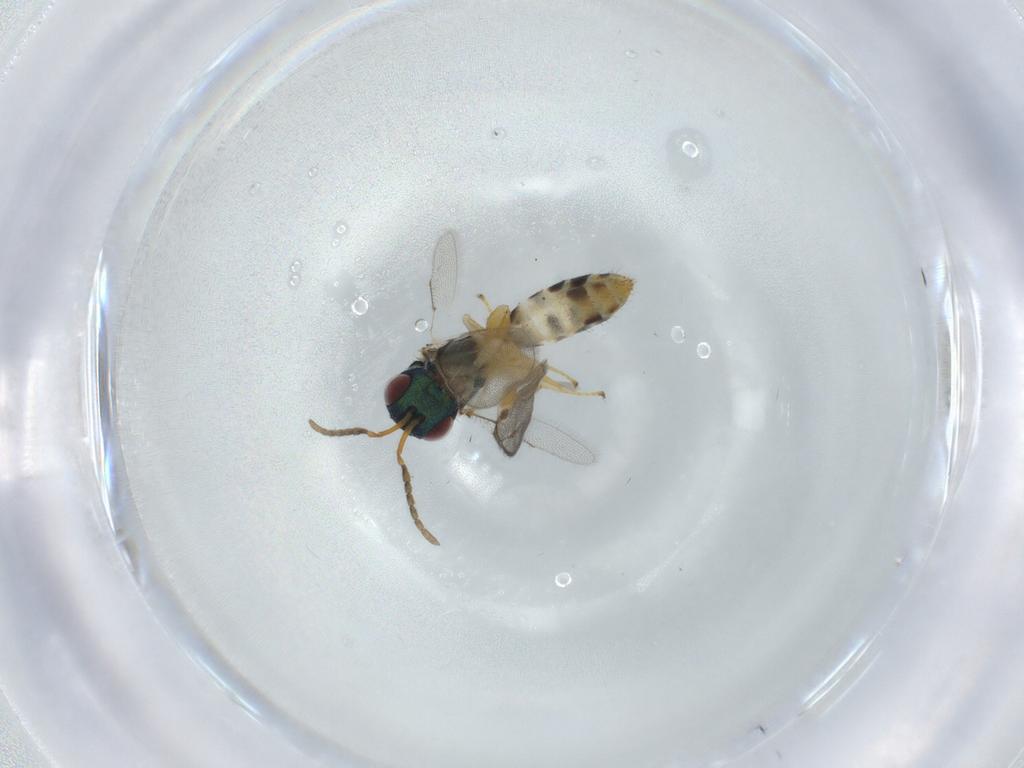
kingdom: Animalia
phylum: Arthropoda
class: Insecta
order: Hymenoptera
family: Pteromalidae
